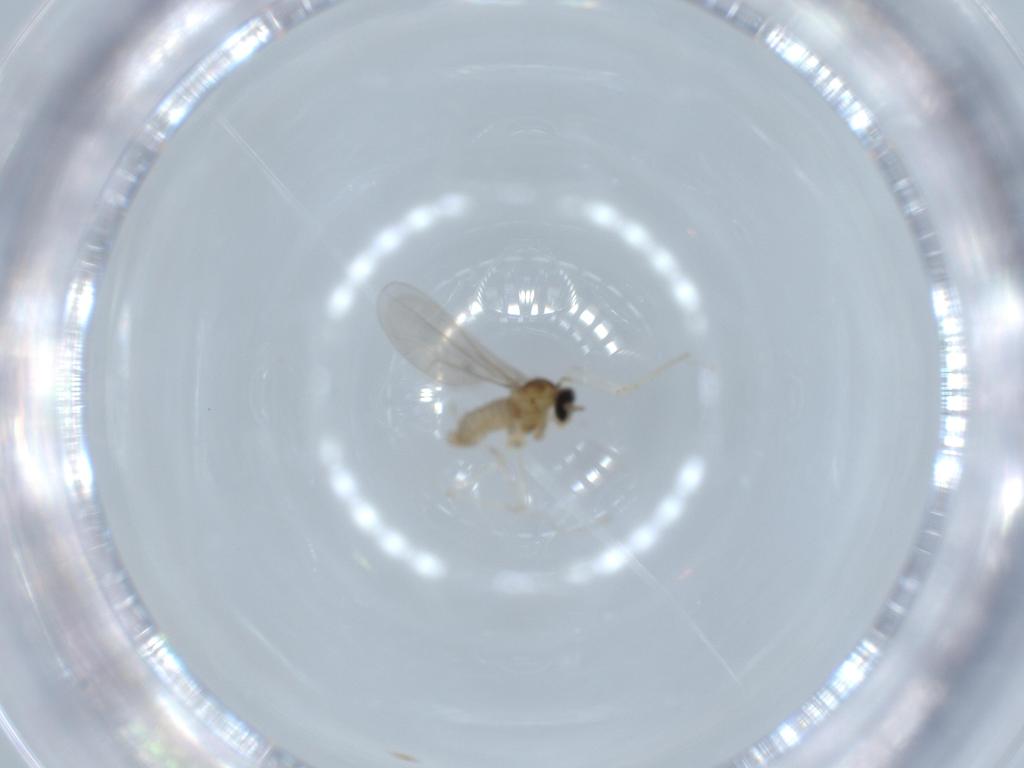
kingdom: Animalia
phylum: Arthropoda
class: Insecta
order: Diptera
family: Cecidomyiidae
